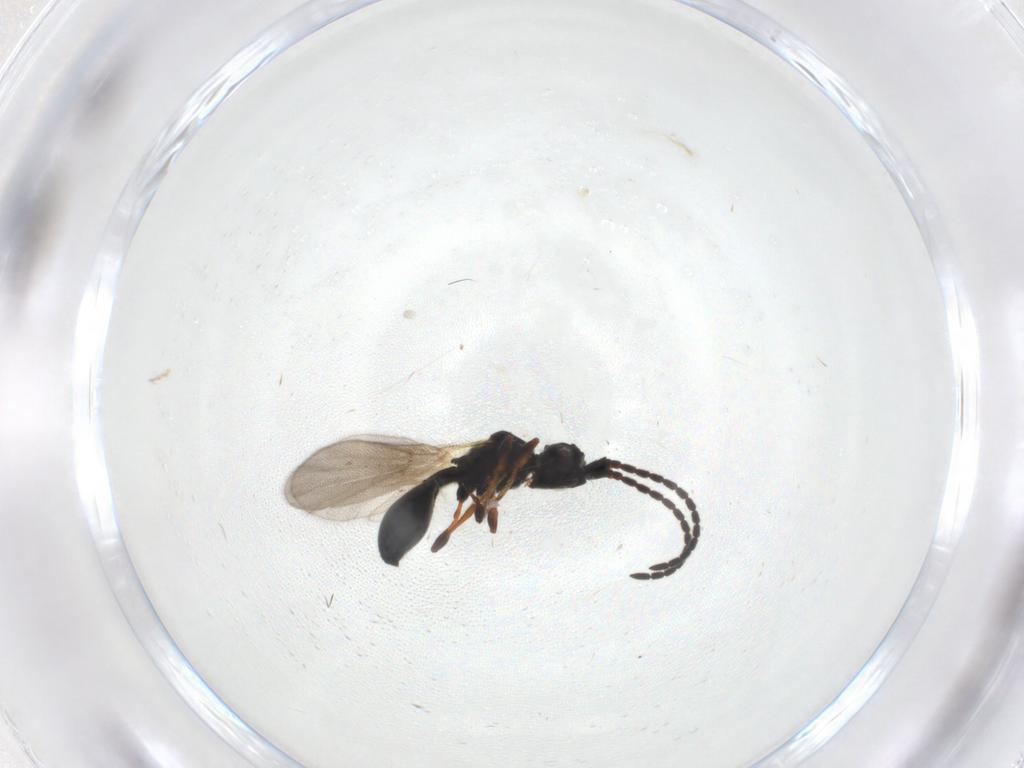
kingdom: Animalia
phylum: Arthropoda
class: Insecta
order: Hymenoptera
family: Diapriidae
